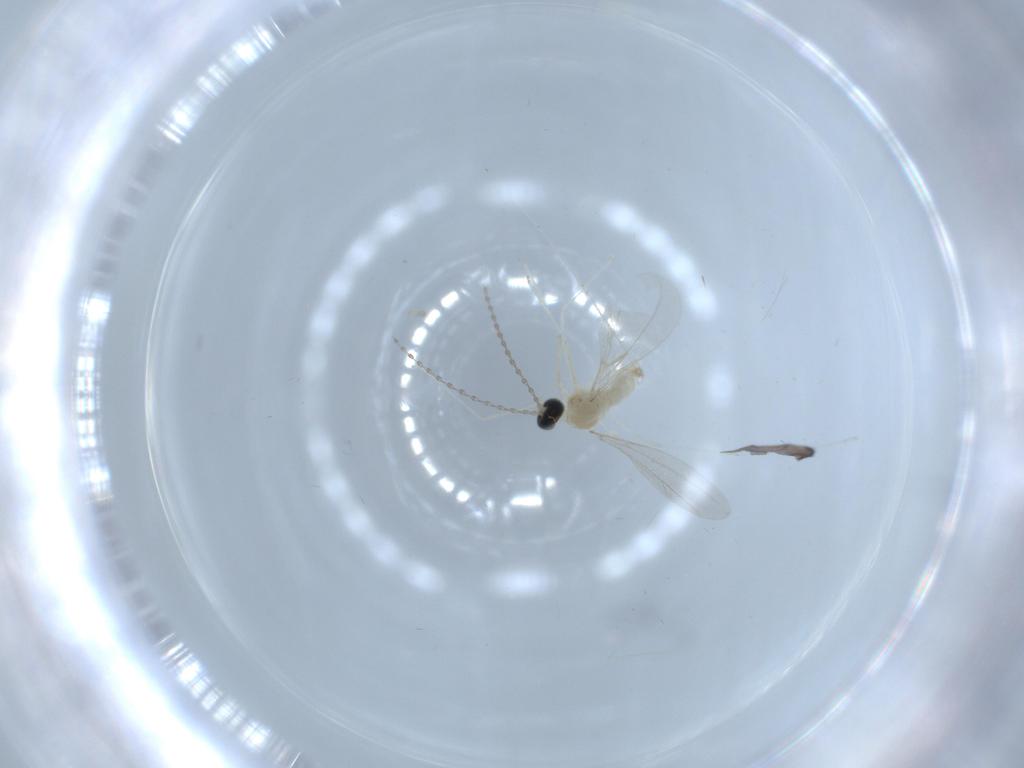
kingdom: Animalia
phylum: Arthropoda
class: Insecta
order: Diptera
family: Cecidomyiidae
